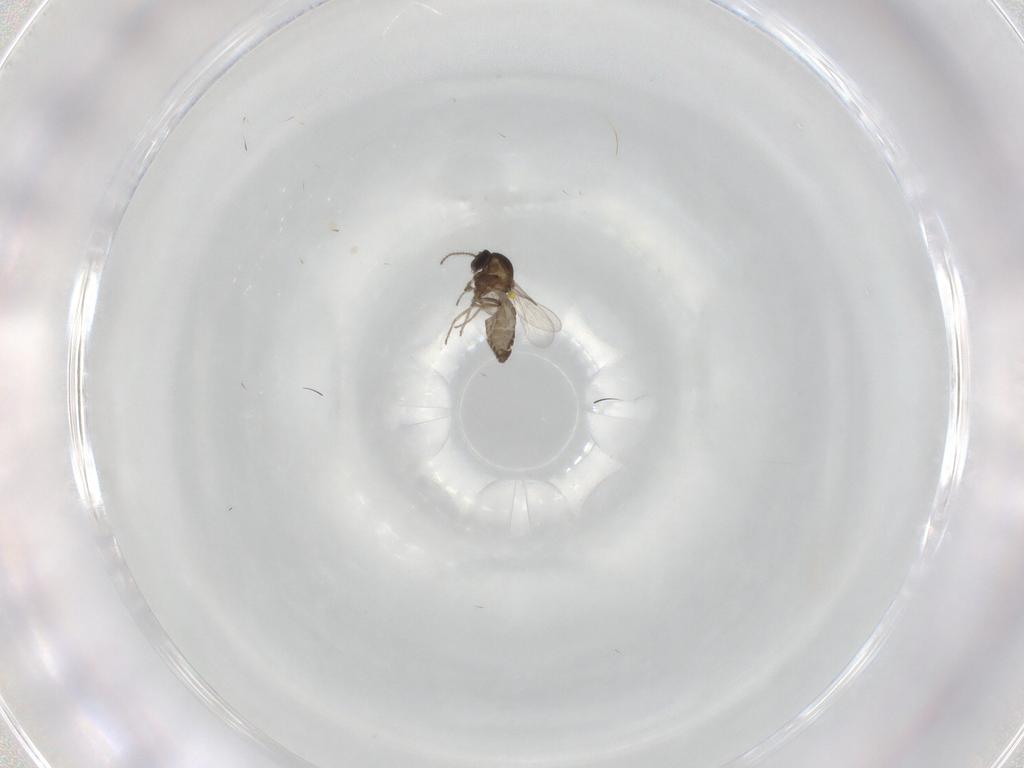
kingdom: Animalia
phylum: Arthropoda
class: Insecta
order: Diptera
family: Ceratopogonidae
